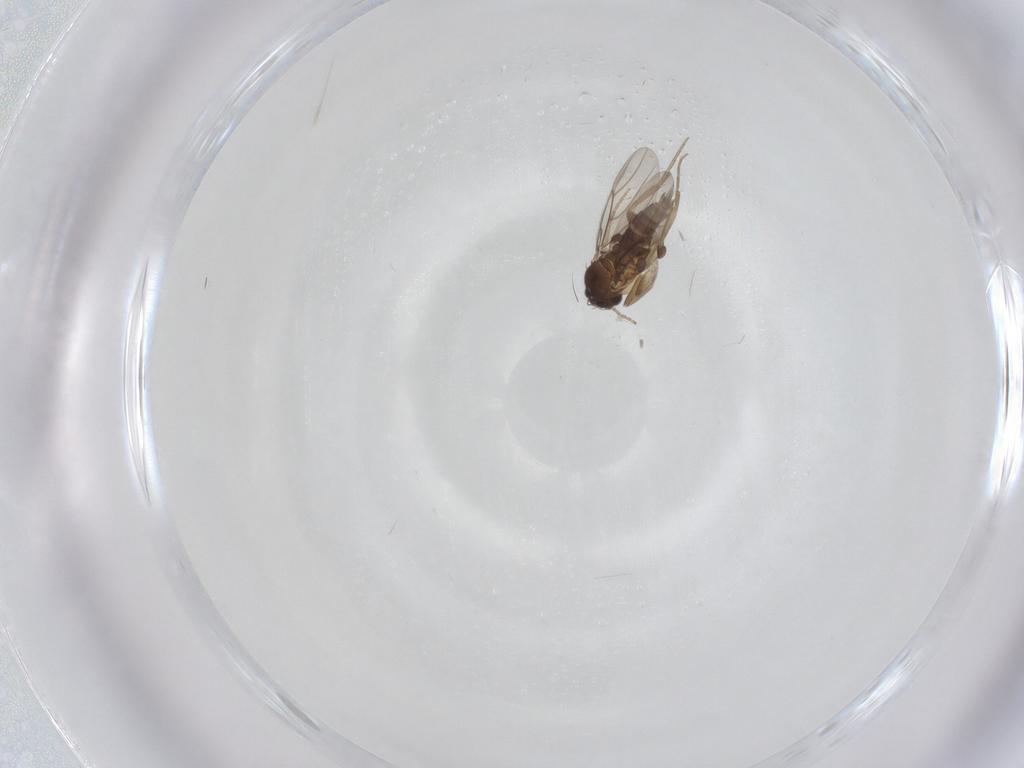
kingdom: Animalia
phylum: Arthropoda
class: Insecta
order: Diptera
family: Phoridae
